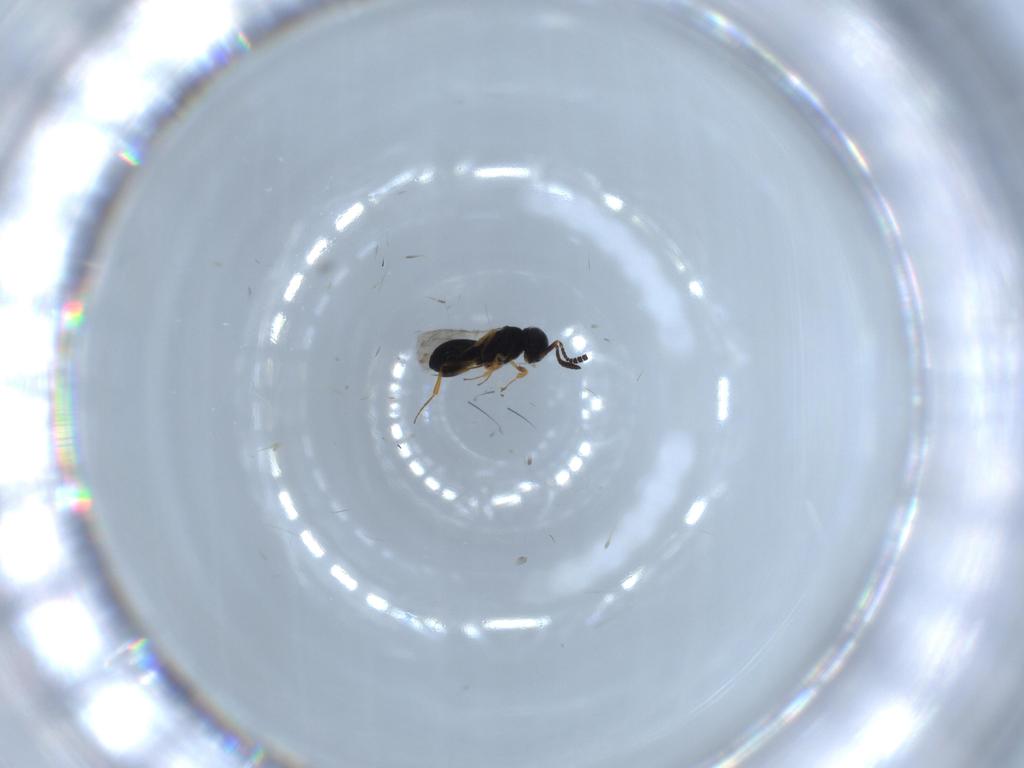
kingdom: Animalia
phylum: Arthropoda
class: Insecta
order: Hymenoptera
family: Scelionidae
